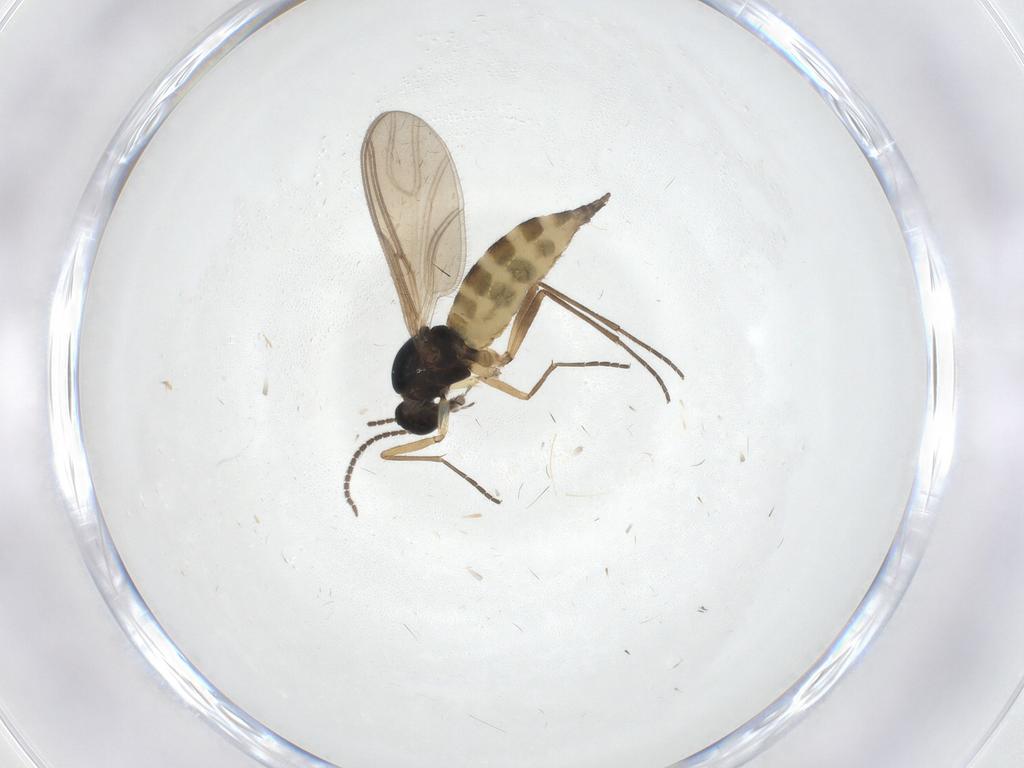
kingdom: Animalia
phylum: Arthropoda
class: Insecta
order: Diptera
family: Sciaridae
